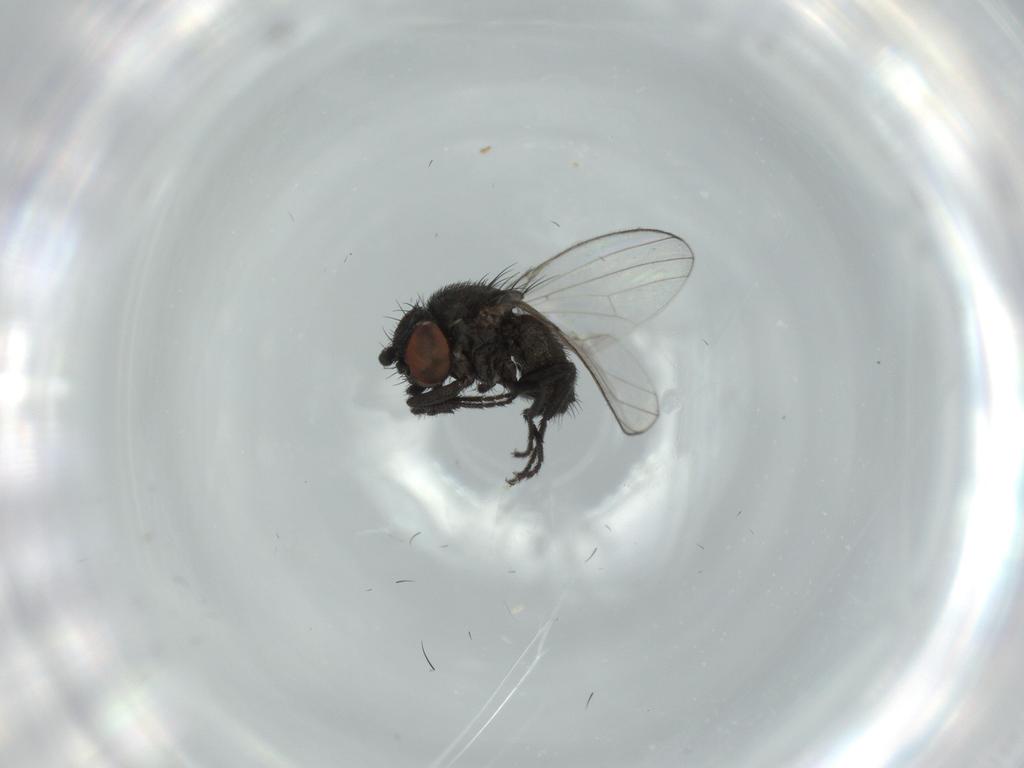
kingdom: Animalia
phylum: Arthropoda
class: Insecta
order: Diptera
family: Milichiidae
